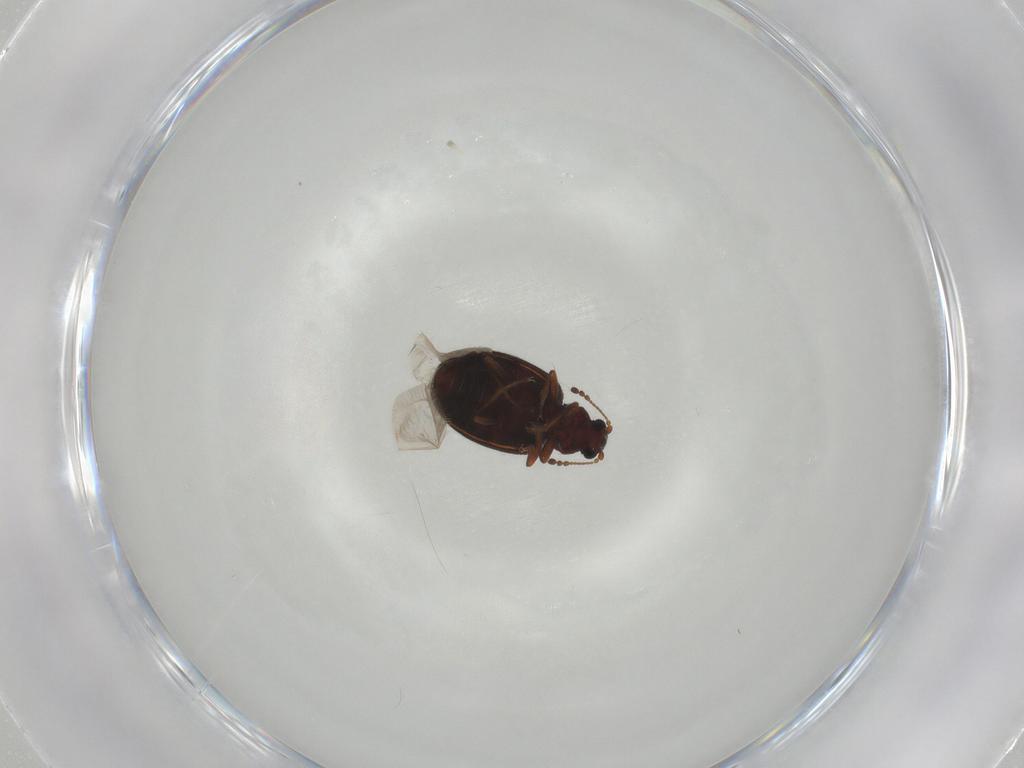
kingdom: Animalia
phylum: Arthropoda
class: Insecta
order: Coleoptera
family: Latridiidae
